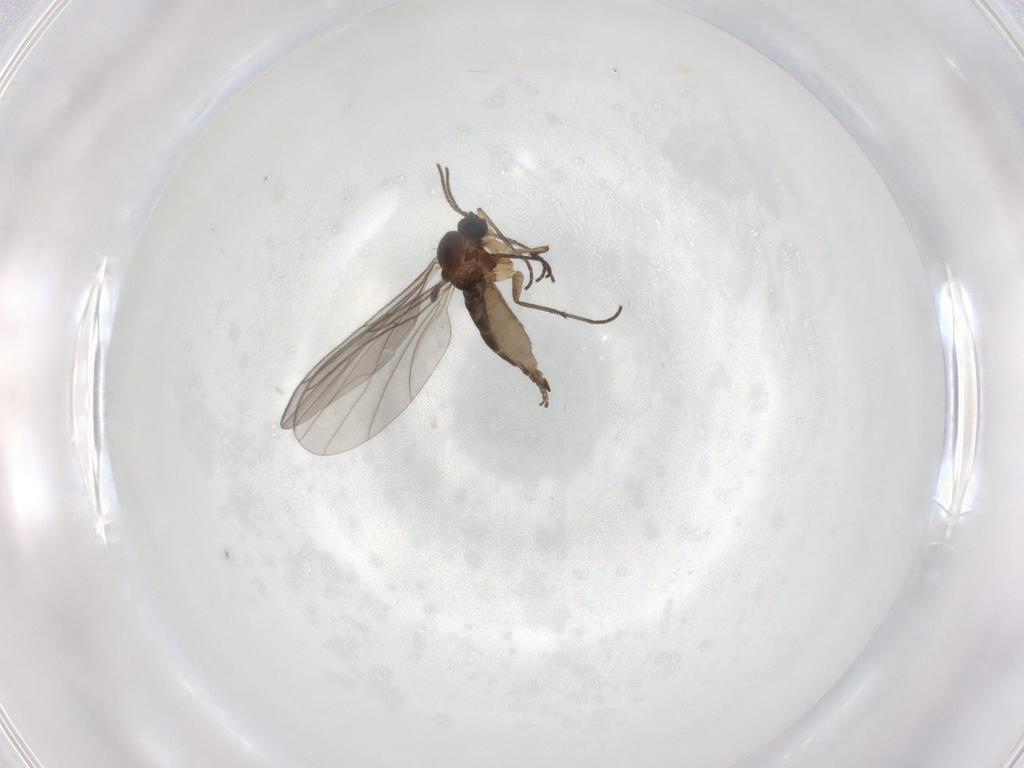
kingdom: Animalia
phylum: Arthropoda
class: Insecta
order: Diptera
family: Sciaridae
